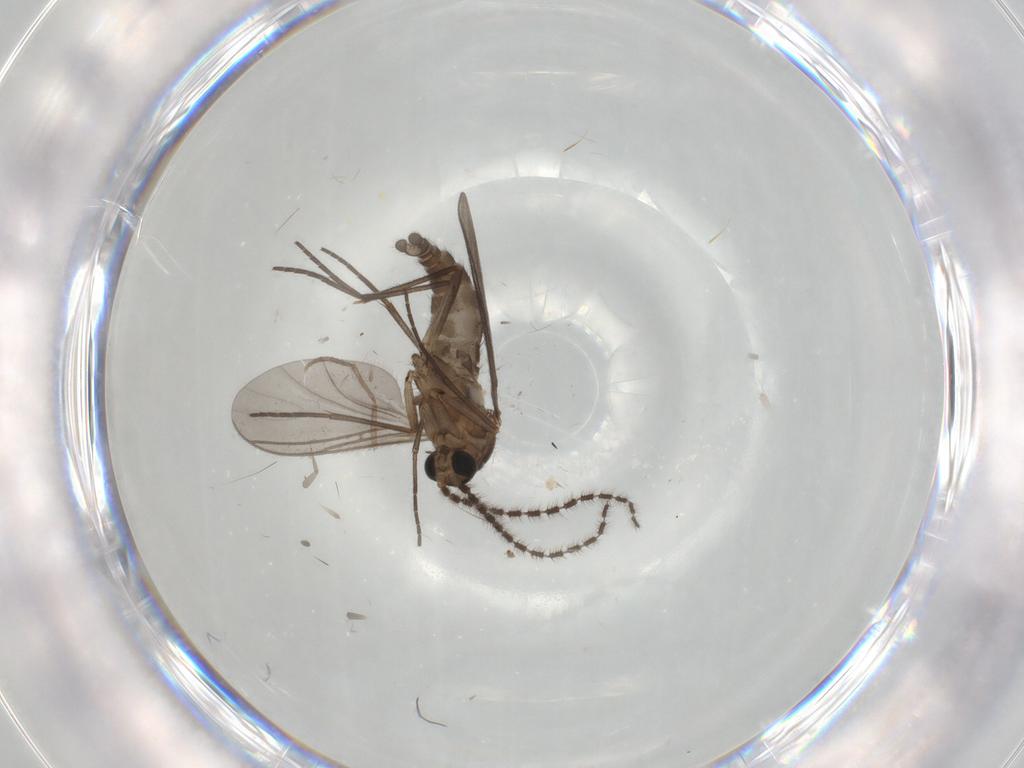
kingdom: Animalia
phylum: Arthropoda
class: Insecta
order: Diptera
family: Sciaridae
